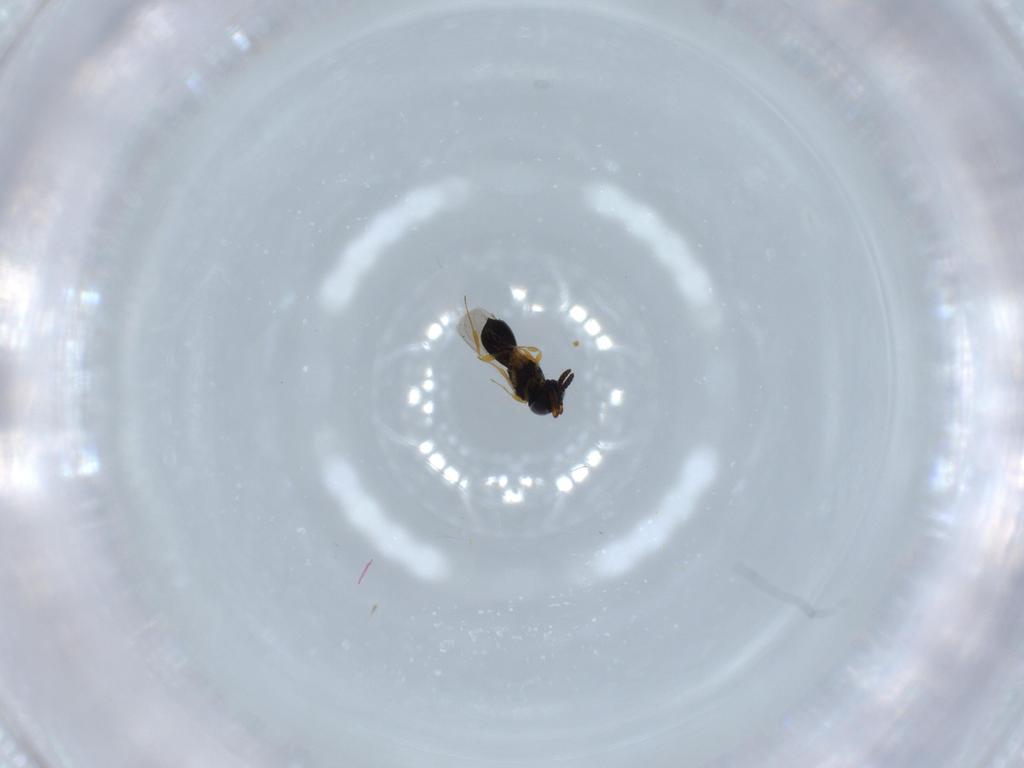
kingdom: Animalia
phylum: Arthropoda
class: Insecta
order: Hymenoptera
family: Scelionidae
